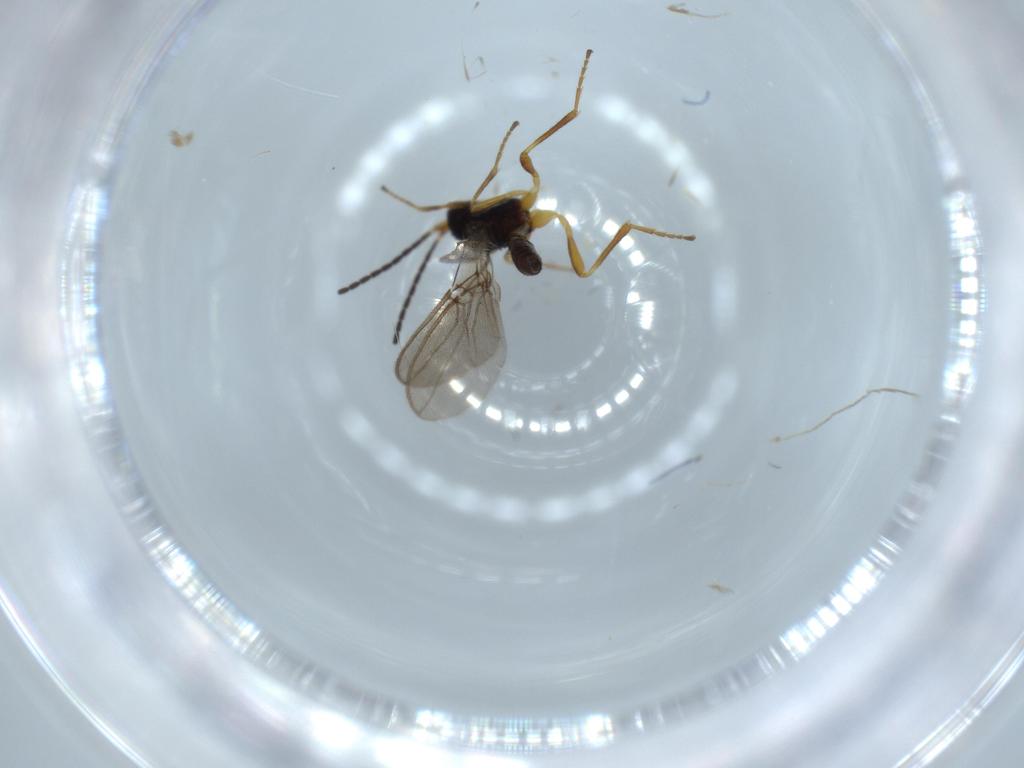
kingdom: Animalia
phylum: Arthropoda
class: Insecta
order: Hymenoptera
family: Braconidae
